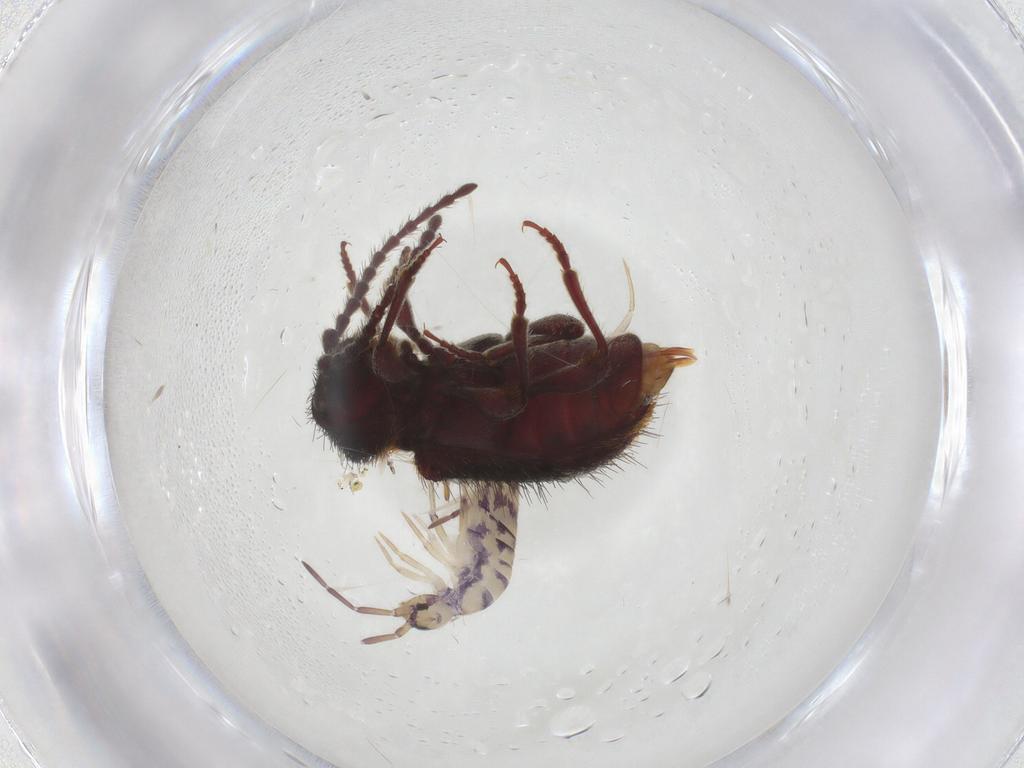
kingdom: Animalia
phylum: Arthropoda
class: Collembola
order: Entomobryomorpha
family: Entomobryidae
